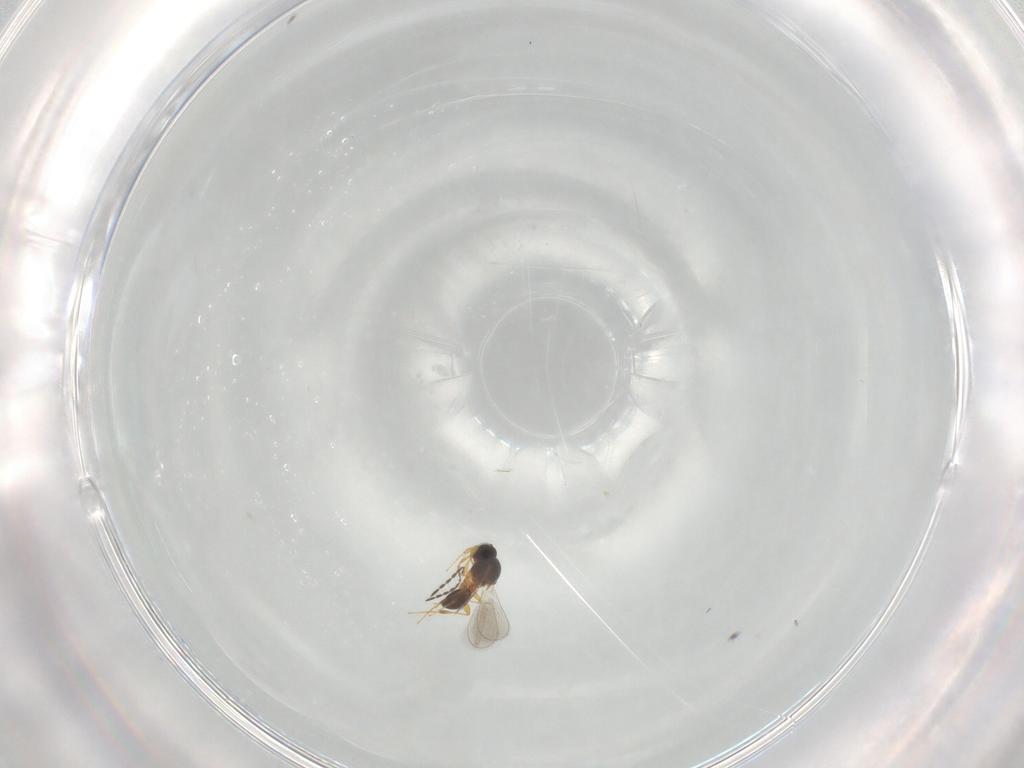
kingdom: Animalia
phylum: Arthropoda
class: Insecta
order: Hymenoptera
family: Platygastridae
